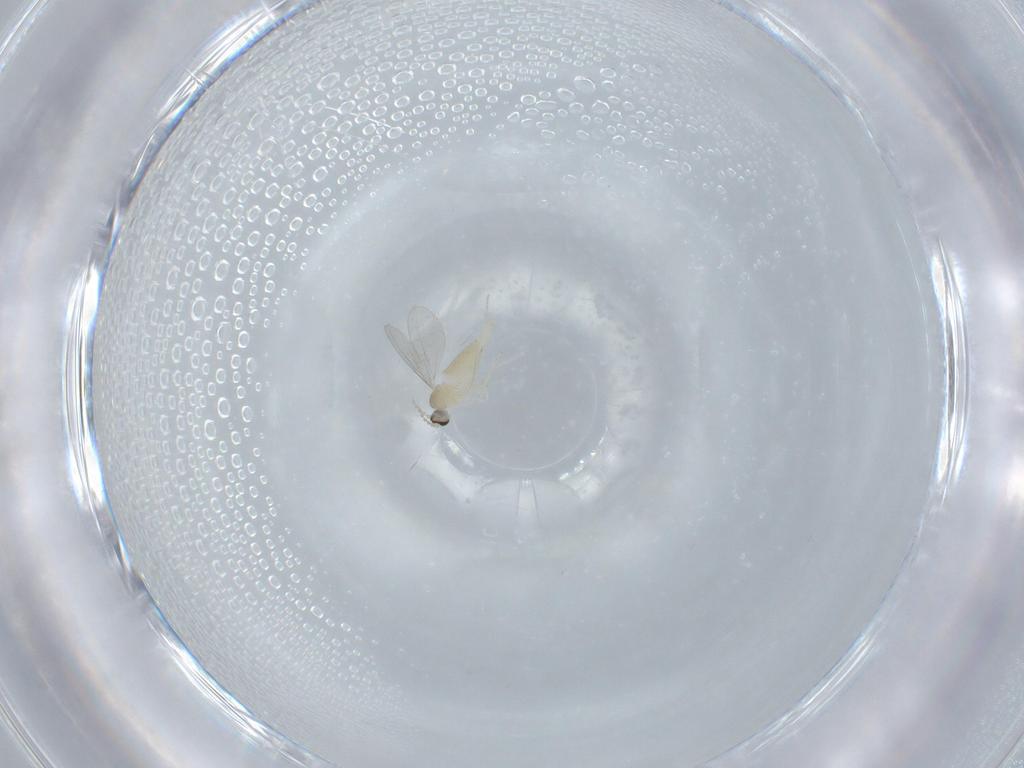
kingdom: Animalia
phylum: Arthropoda
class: Insecta
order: Diptera
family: Cecidomyiidae
